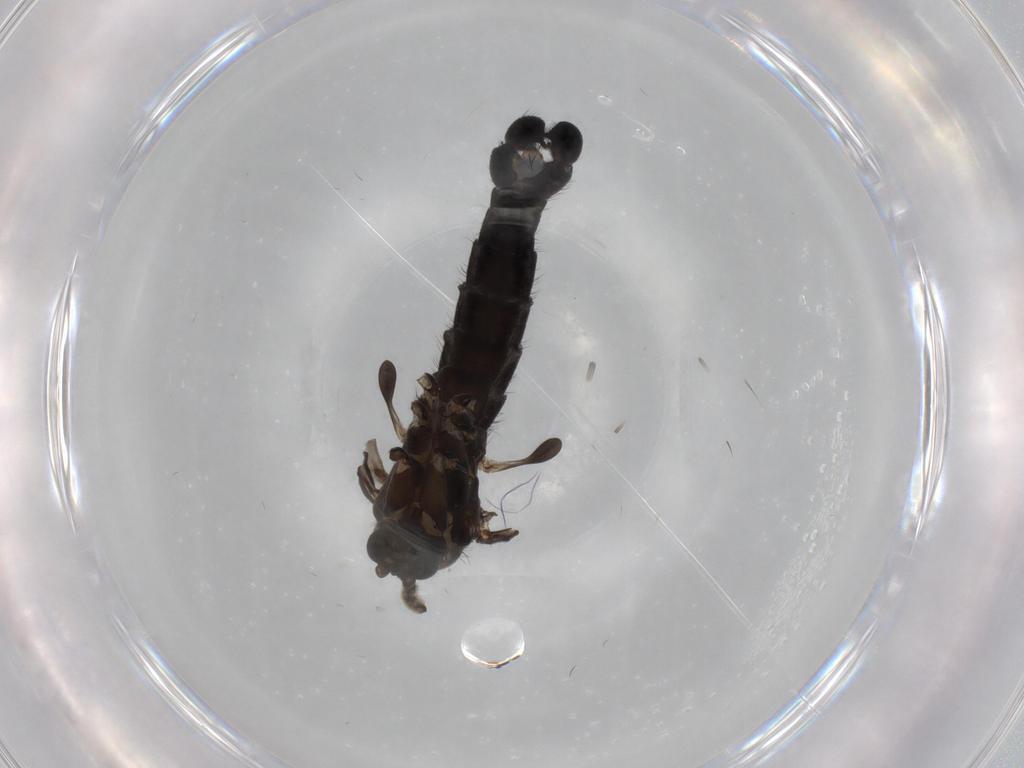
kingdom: Animalia
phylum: Arthropoda
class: Insecta
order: Diptera
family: Sciaridae
